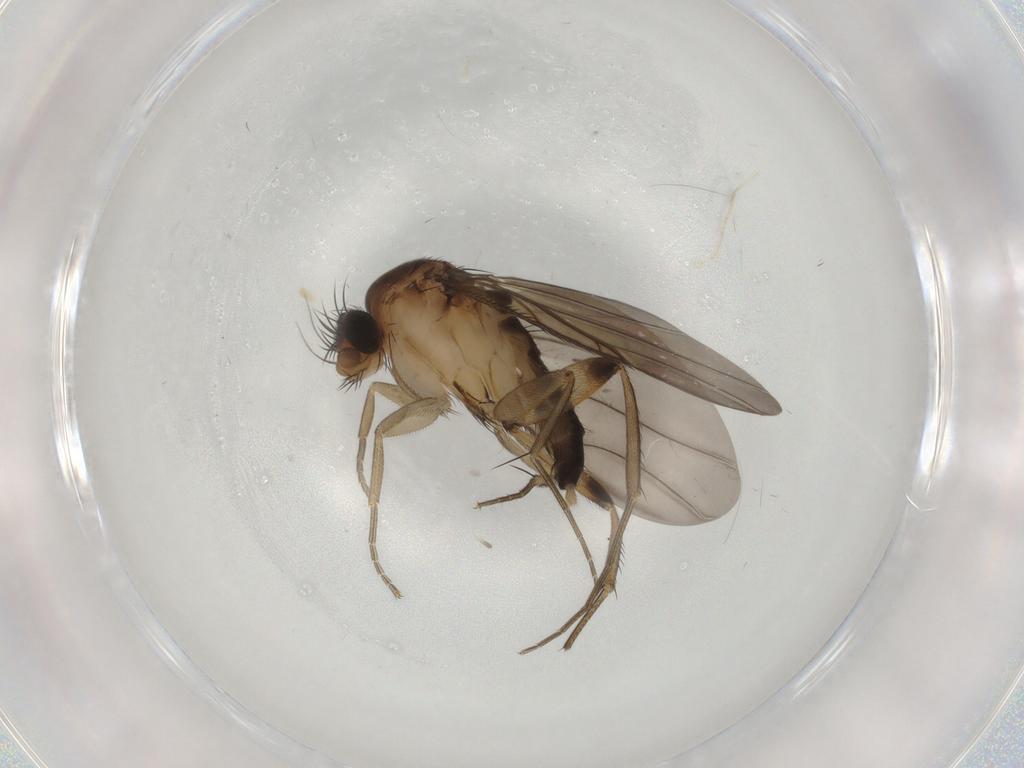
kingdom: Animalia
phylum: Arthropoda
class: Insecta
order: Diptera
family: Phoridae
